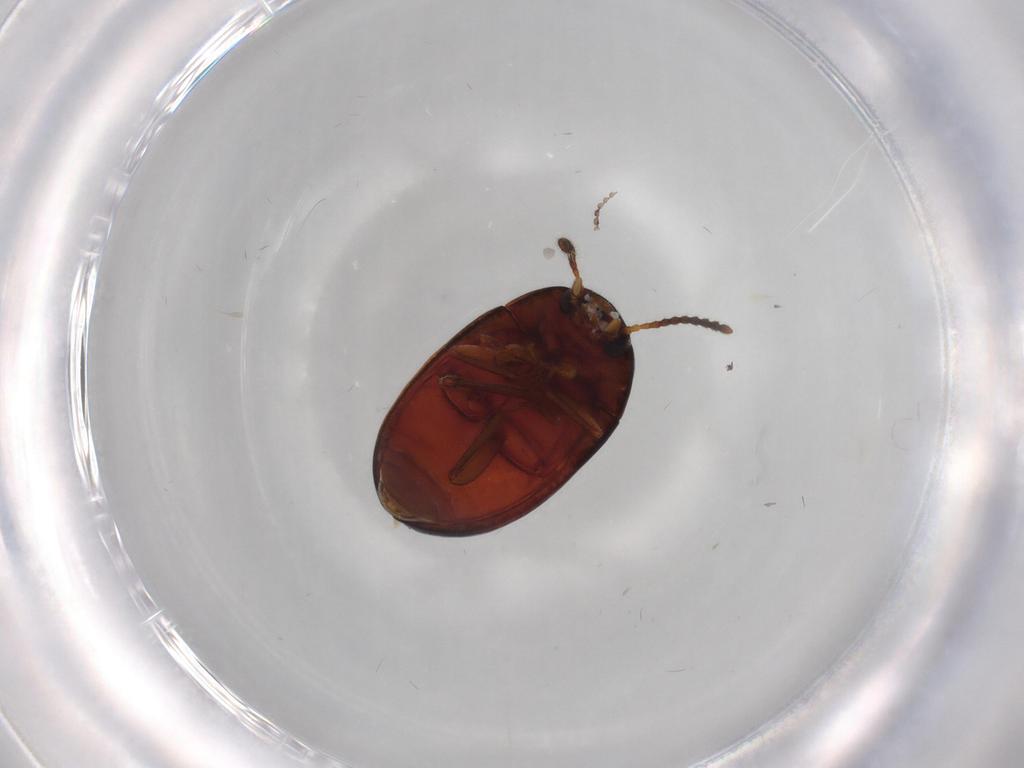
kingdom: Animalia
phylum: Arthropoda
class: Insecta
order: Coleoptera
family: Tenebrionidae
